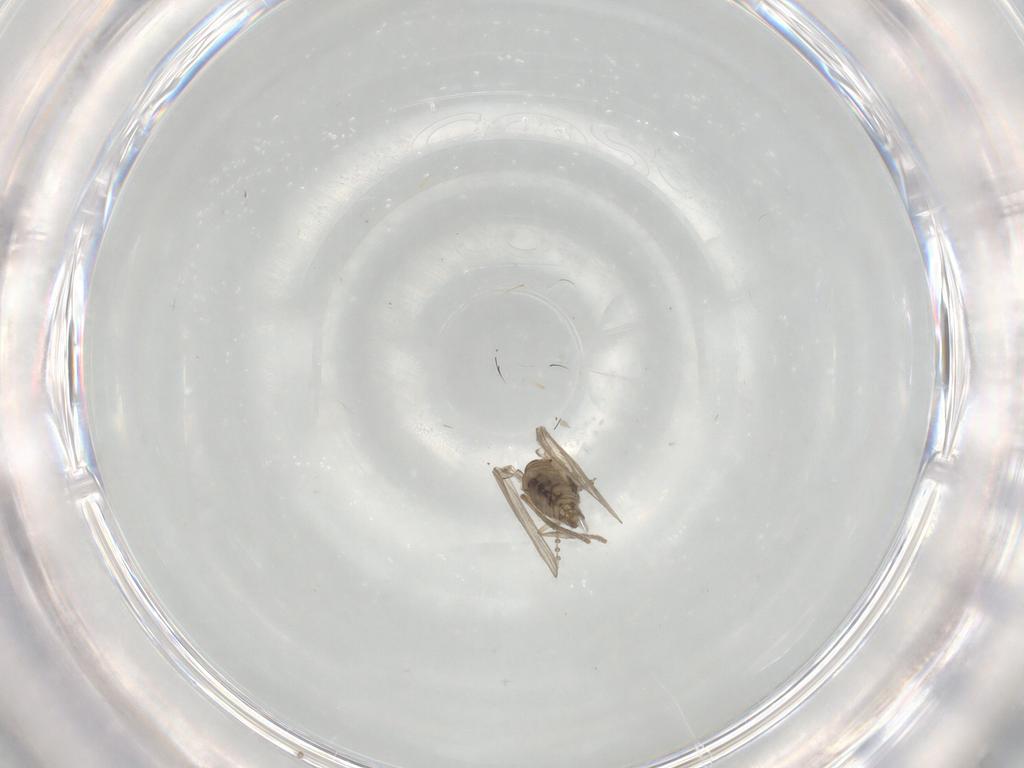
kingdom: Animalia
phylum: Arthropoda
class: Insecta
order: Diptera
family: Psychodidae
